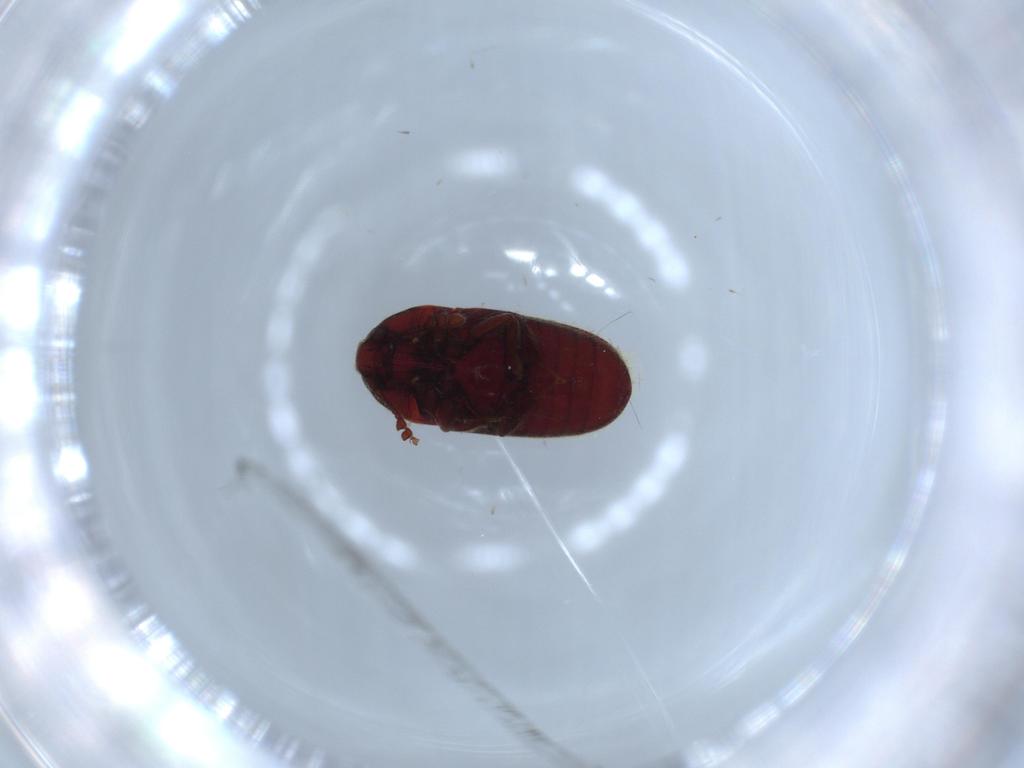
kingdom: Animalia
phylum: Arthropoda
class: Insecta
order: Coleoptera
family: Throscidae
